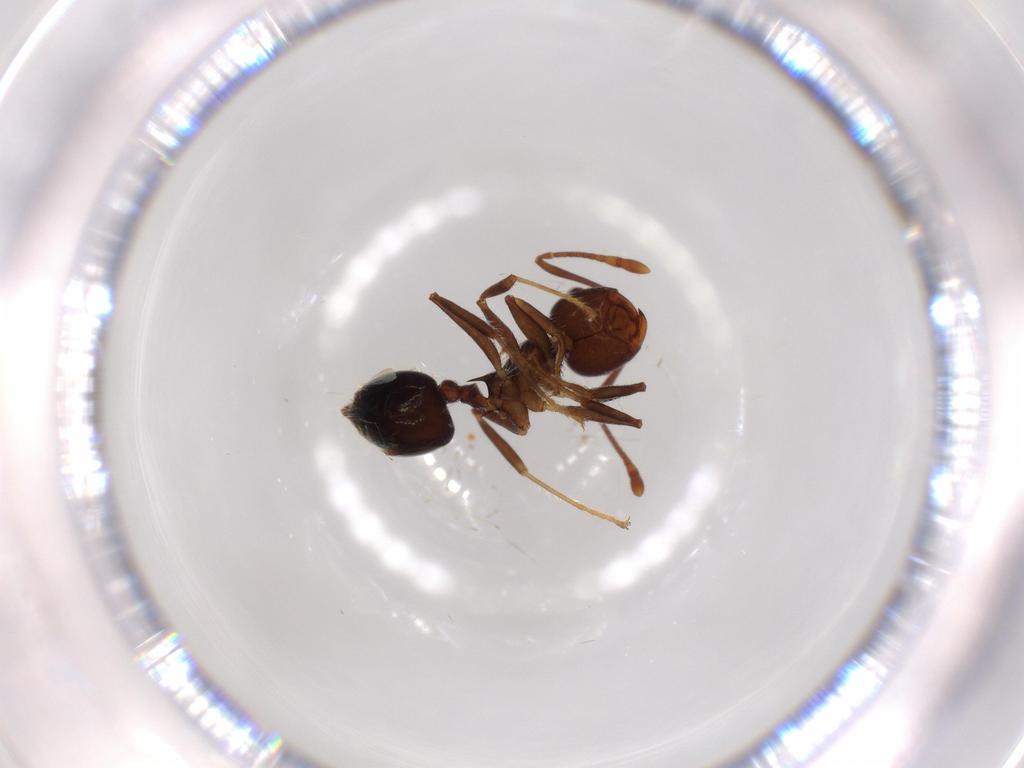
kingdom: Animalia
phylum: Arthropoda
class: Insecta
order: Hymenoptera
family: Formicidae
